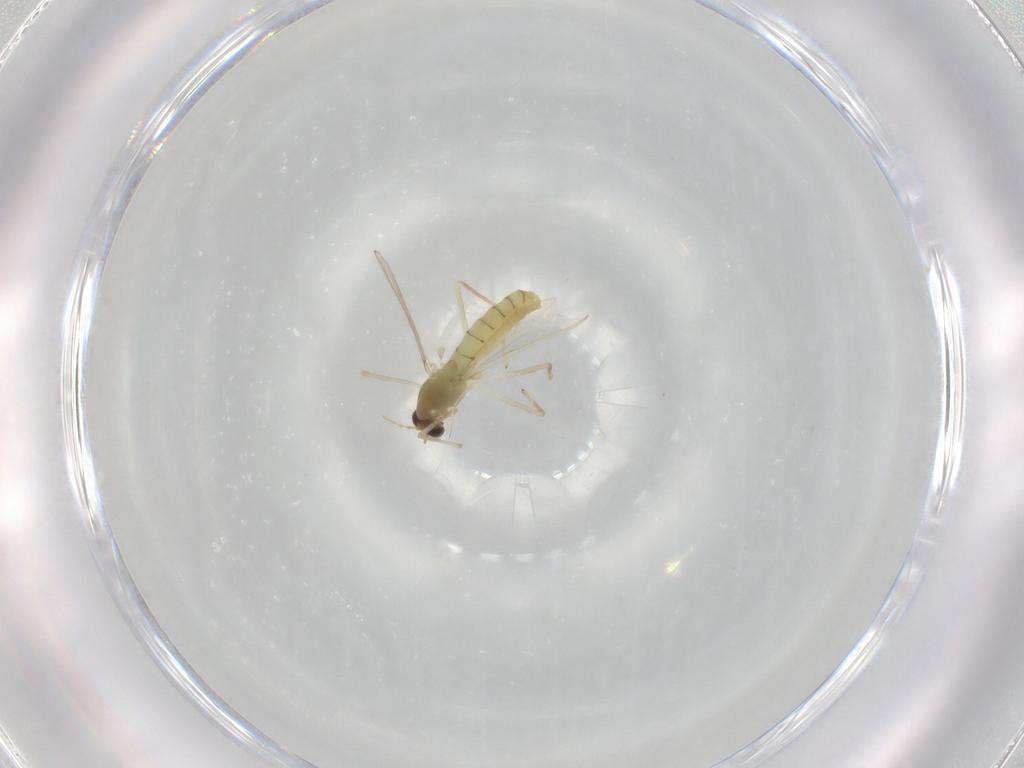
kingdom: Animalia
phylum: Arthropoda
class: Insecta
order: Diptera
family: Chironomidae
